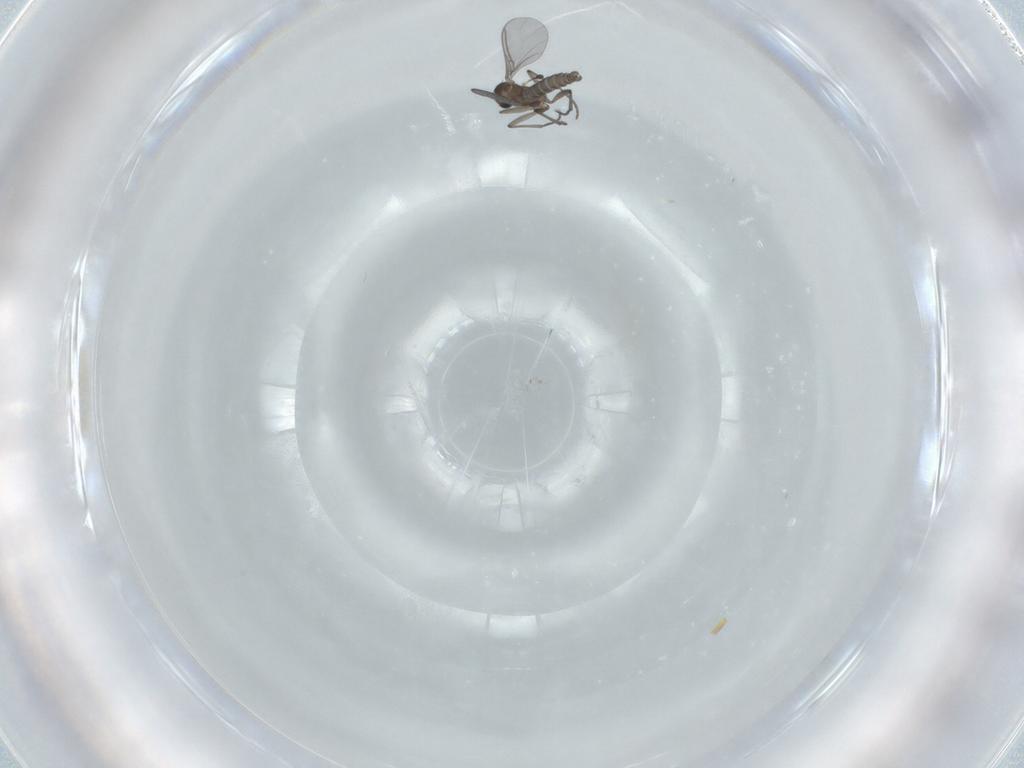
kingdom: Animalia
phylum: Arthropoda
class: Insecta
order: Diptera
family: Sciaridae
